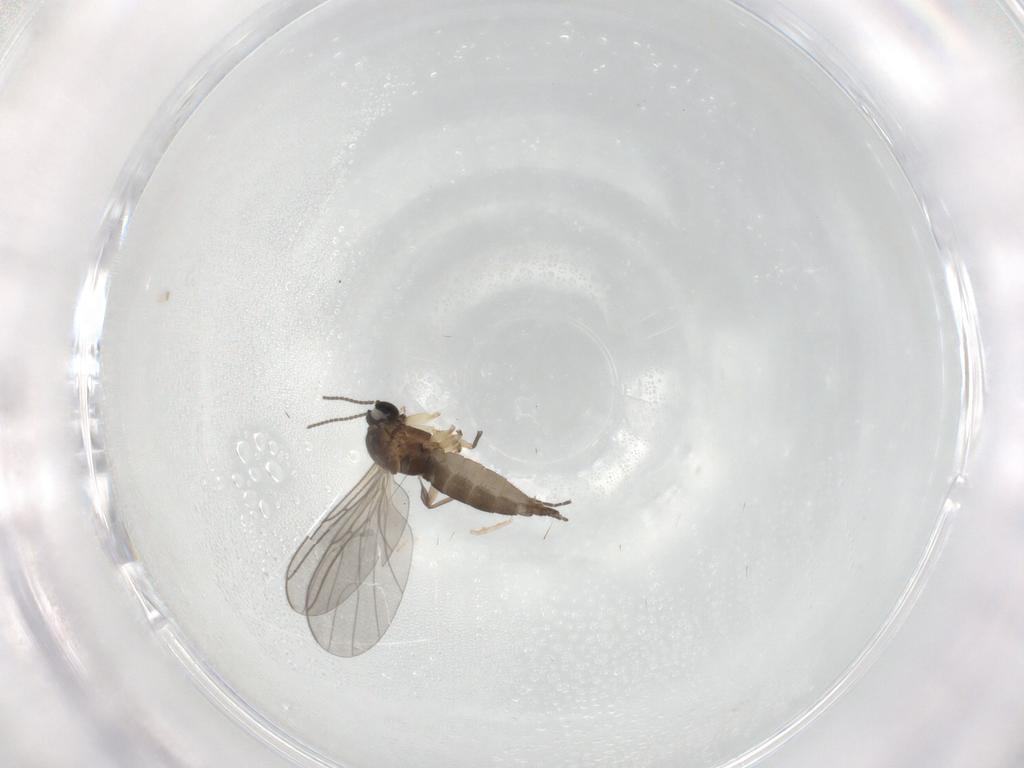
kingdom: Animalia
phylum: Arthropoda
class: Insecta
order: Diptera
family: Sciaridae
